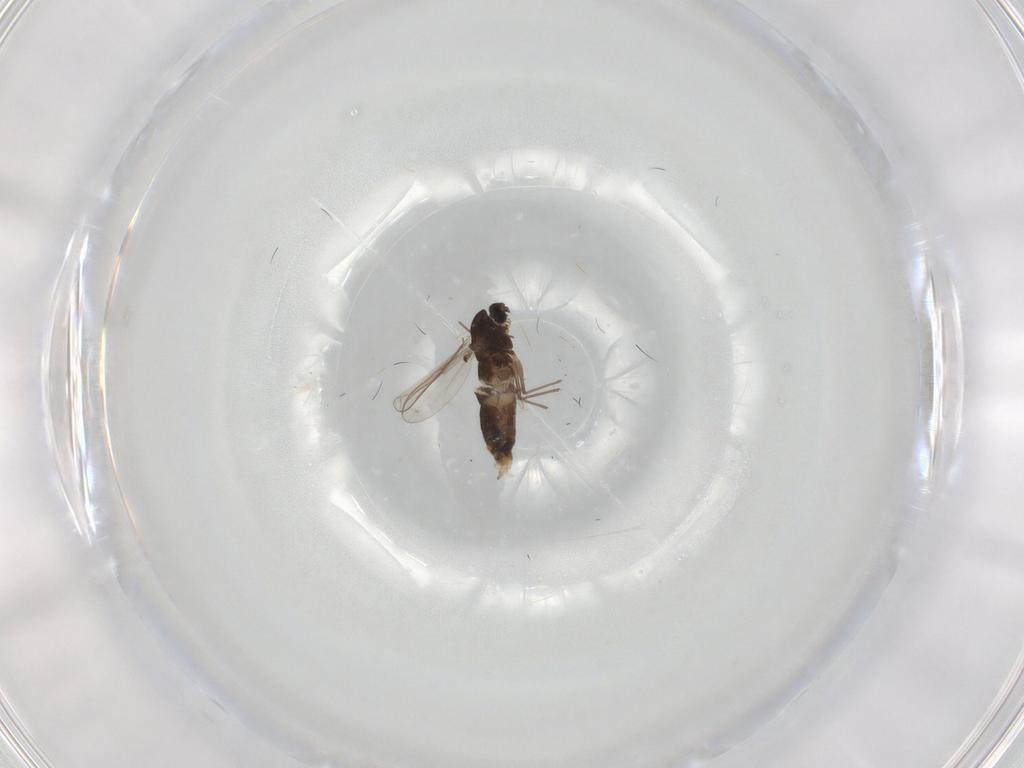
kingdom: Animalia
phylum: Arthropoda
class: Insecta
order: Diptera
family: Chironomidae
